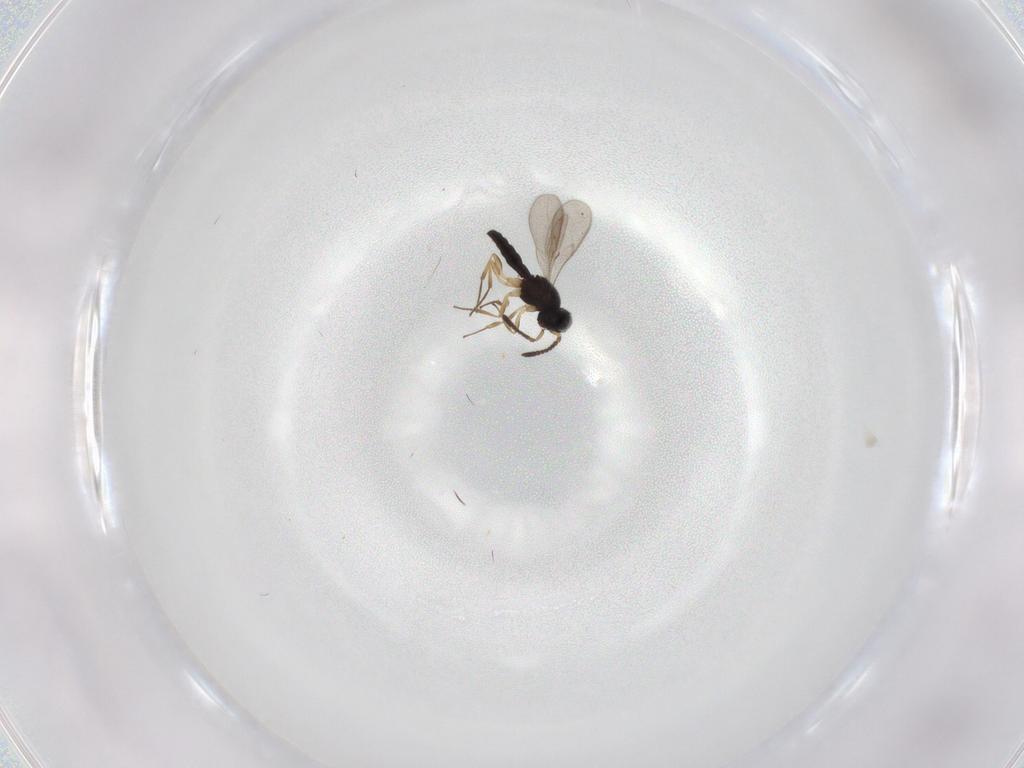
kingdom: Animalia
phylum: Arthropoda
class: Insecta
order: Hymenoptera
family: Scelionidae
